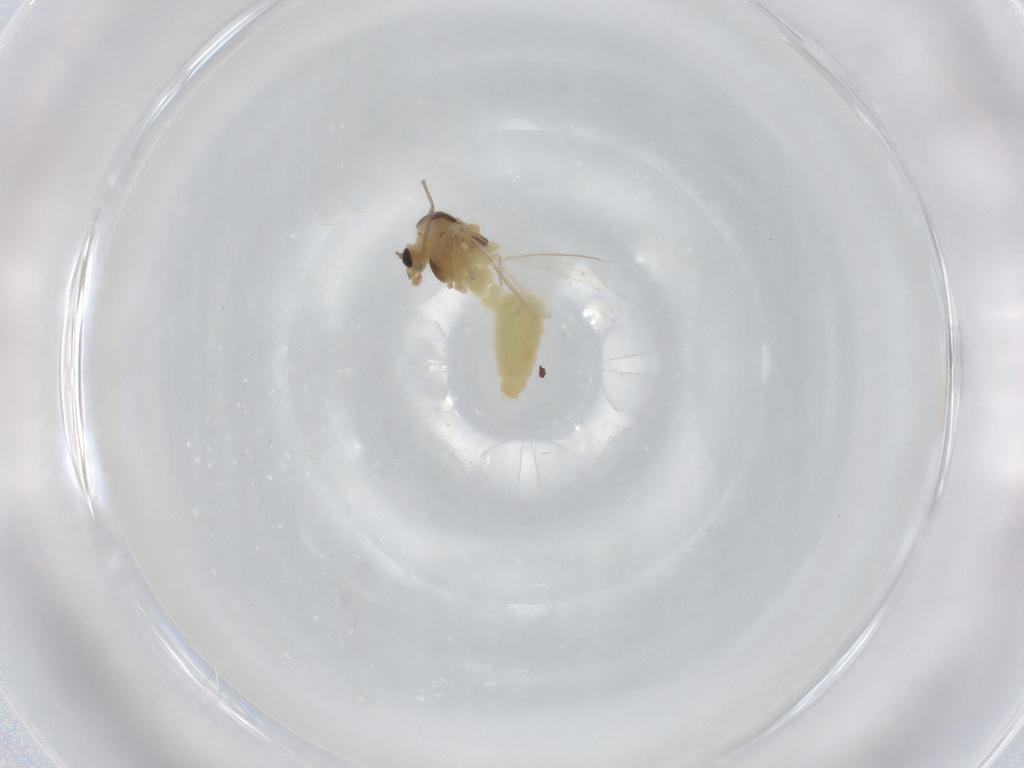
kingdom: Animalia
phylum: Arthropoda
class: Insecta
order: Diptera
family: Chironomidae
